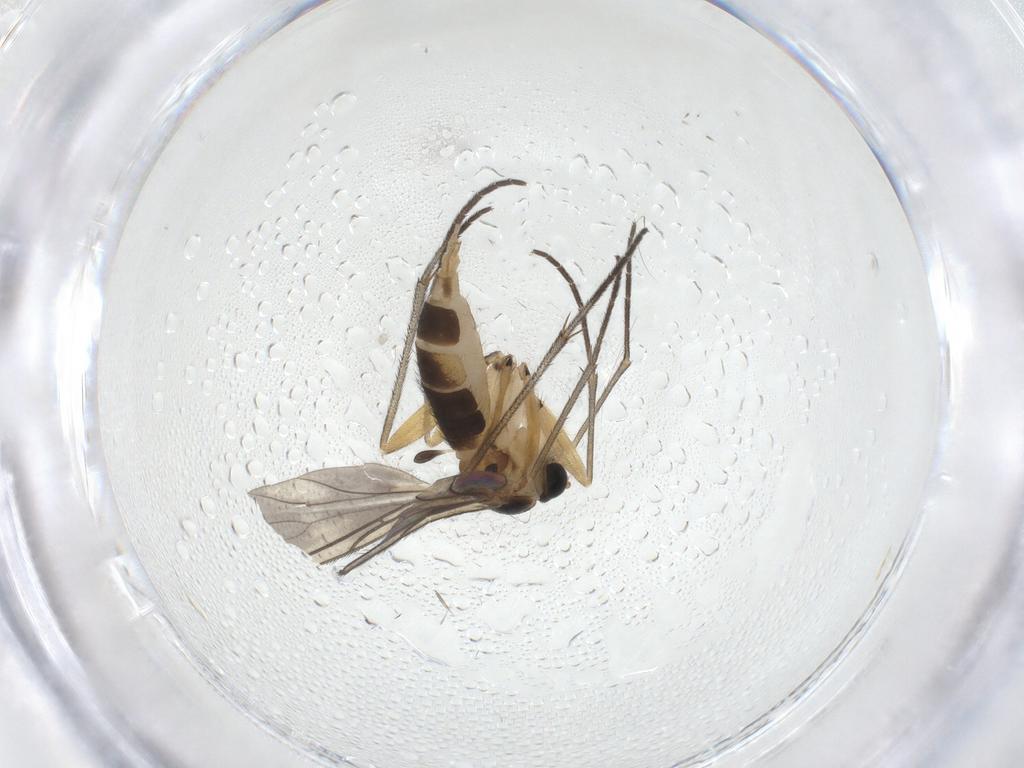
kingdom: Animalia
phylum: Arthropoda
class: Insecta
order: Diptera
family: Sciaridae
